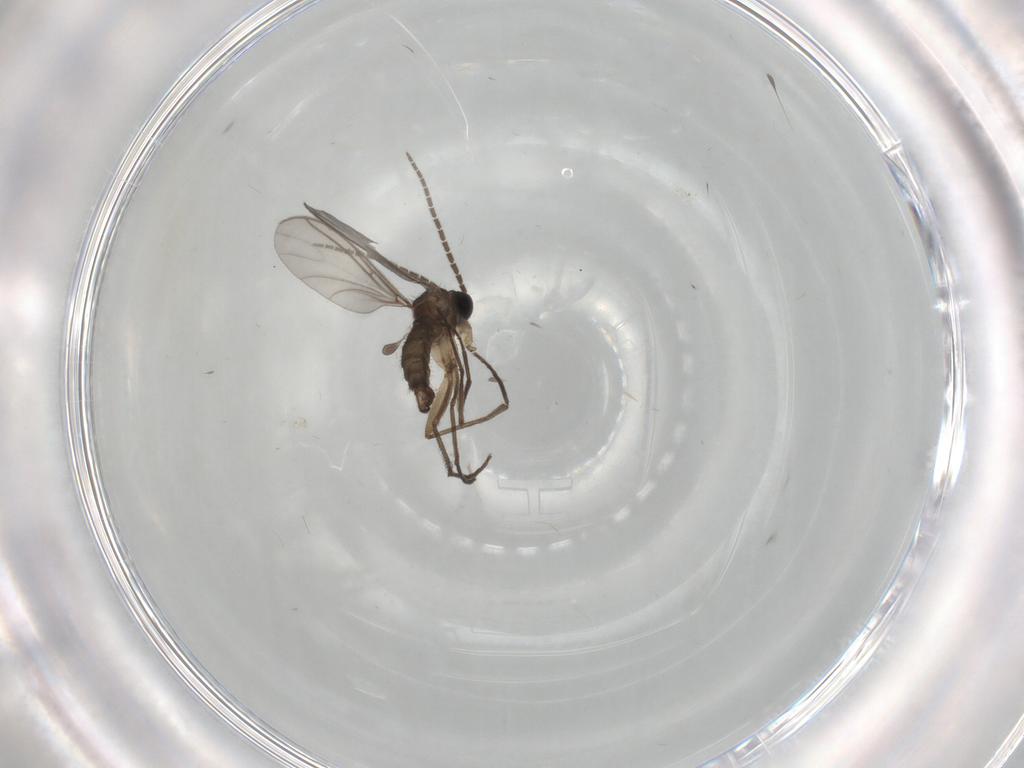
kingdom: Animalia
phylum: Arthropoda
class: Insecta
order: Diptera
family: Sciaridae
